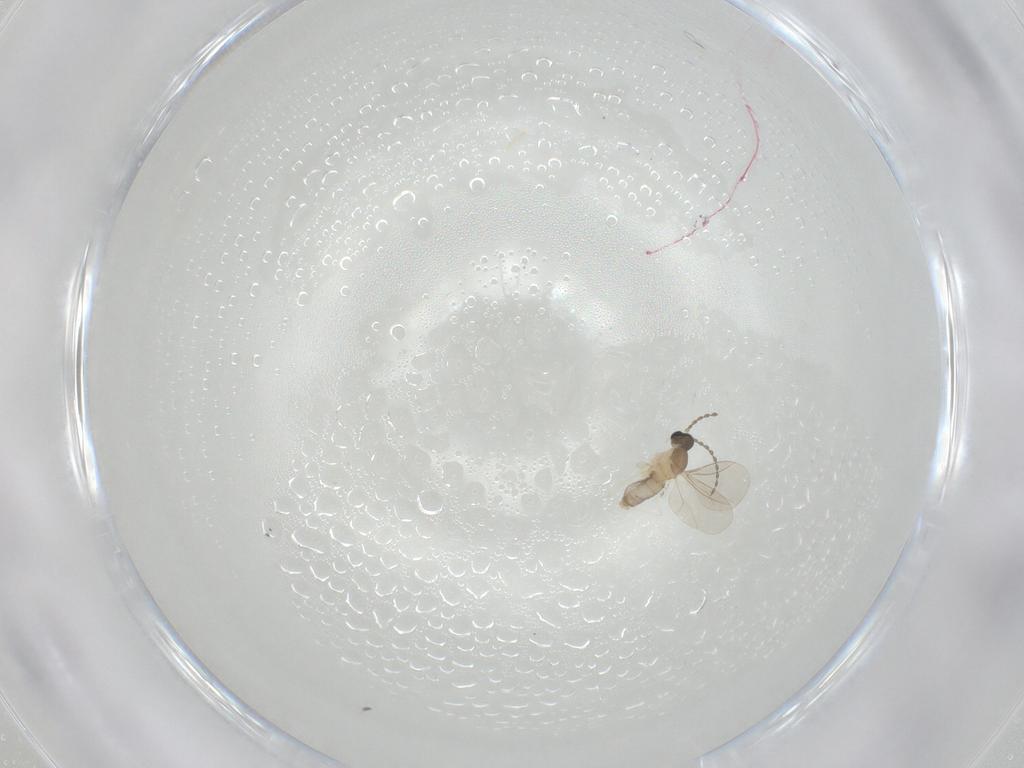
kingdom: Animalia
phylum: Arthropoda
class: Insecta
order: Diptera
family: Cecidomyiidae
